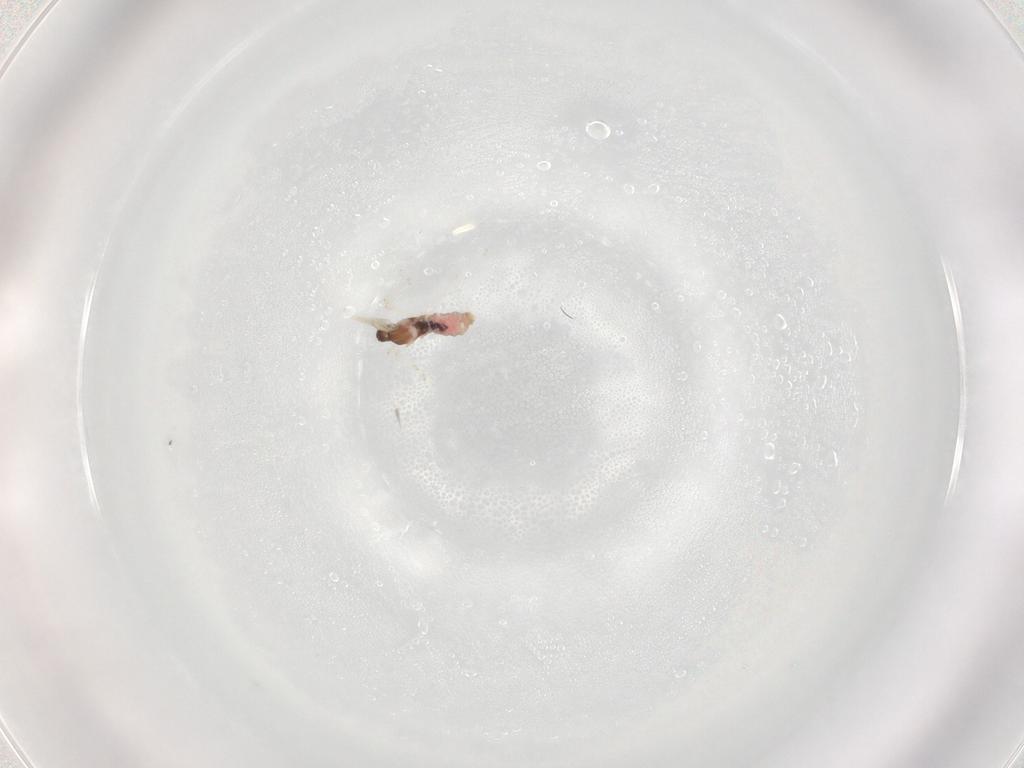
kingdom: Animalia
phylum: Arthropoda
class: Insecta
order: Diptera
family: Cecidomyiidae
